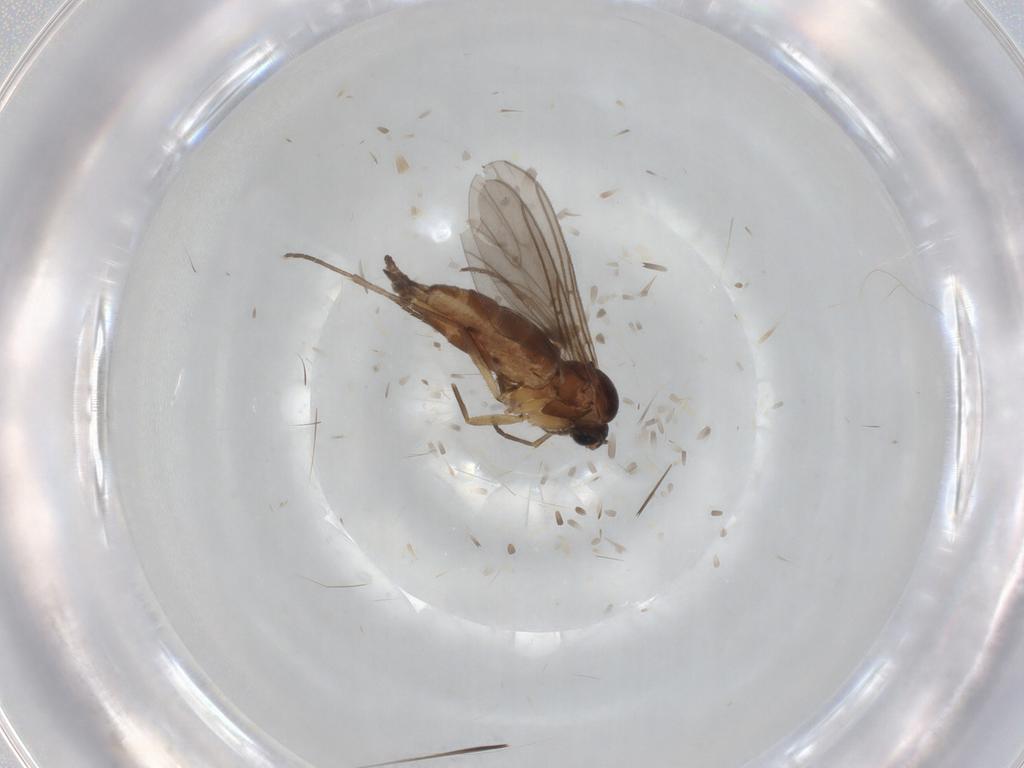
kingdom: Animalia
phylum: Arthropoda
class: Insecta
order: Diptera
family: Sciaridae
